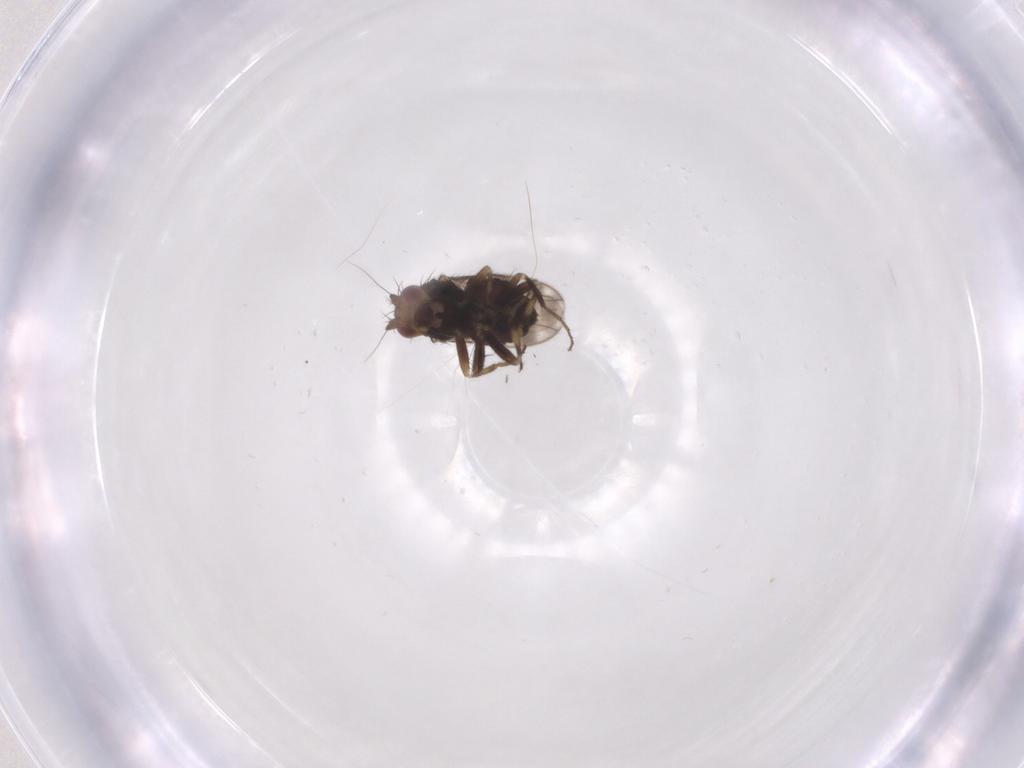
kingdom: Animalia
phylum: Arthropoda
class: Insecta
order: Diptera
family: Sphaeroceridae
